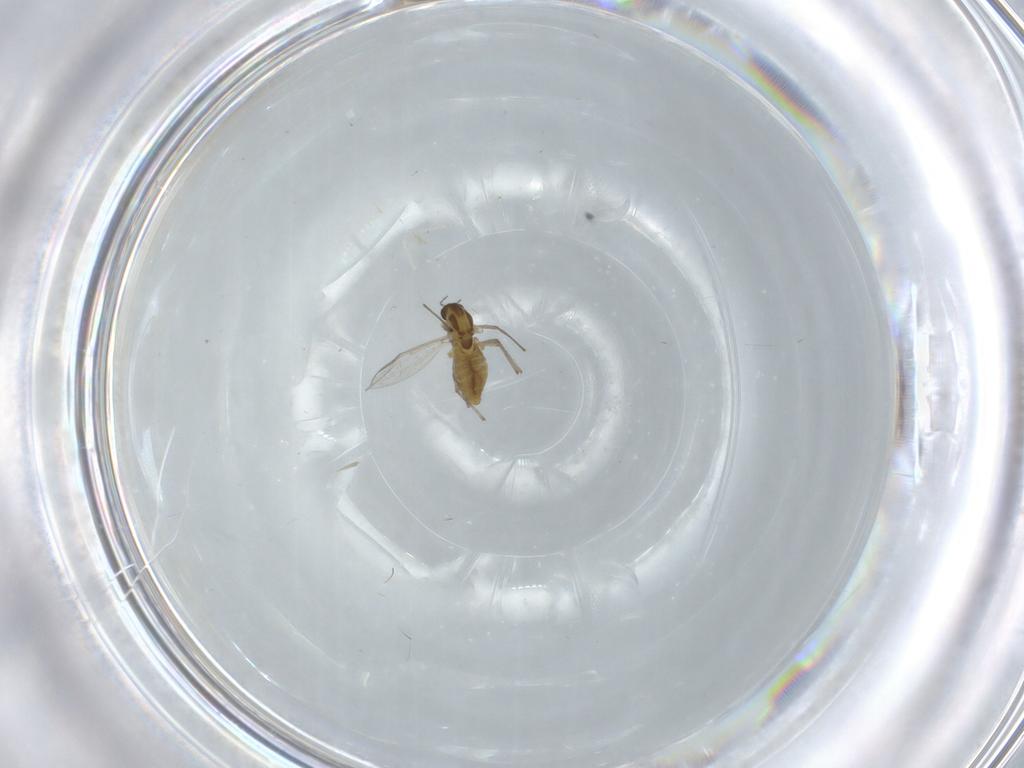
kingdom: Animalia
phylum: Arthropoda
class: Insecta
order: Diptera
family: Chironomidae
